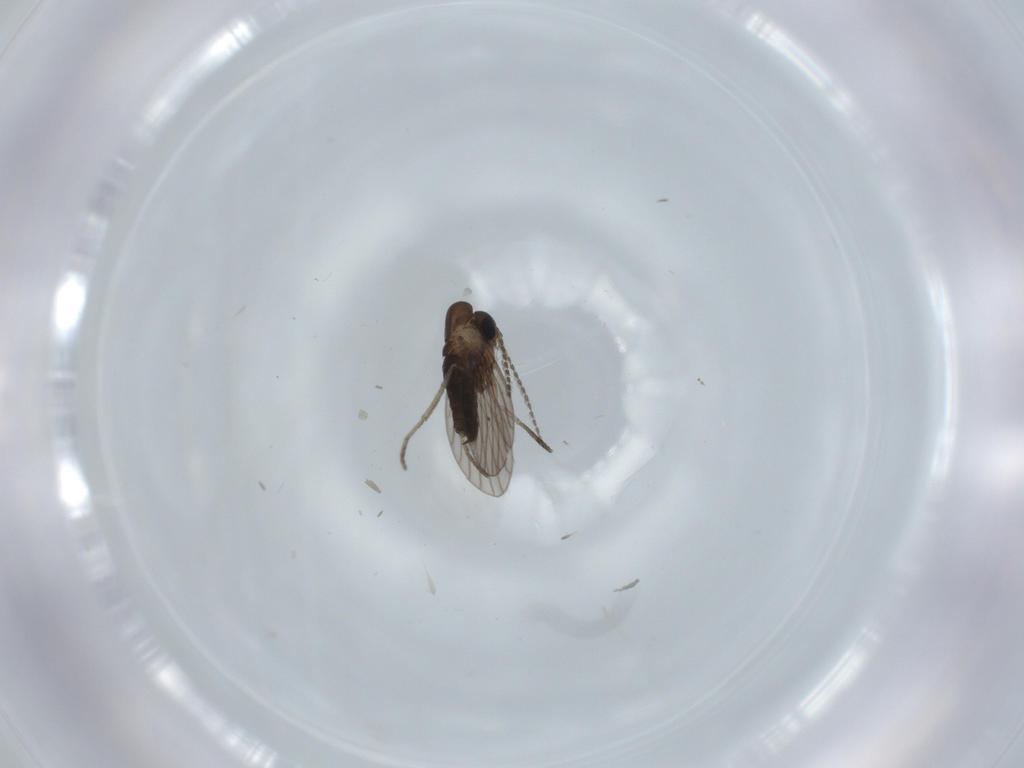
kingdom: Animalia
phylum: Arthropoda
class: Insecta
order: Diptera
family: Cecidomyiidae
